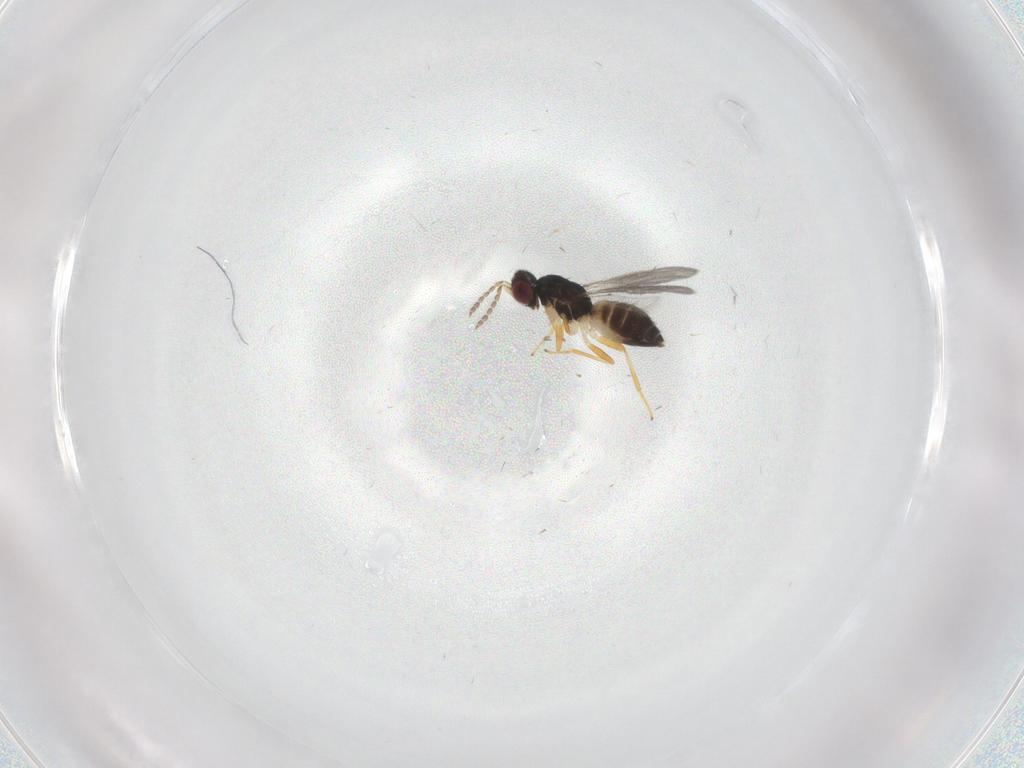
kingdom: Animalia
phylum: Arthropoda
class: Insecta
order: Hymenoptera
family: Eulophidae
